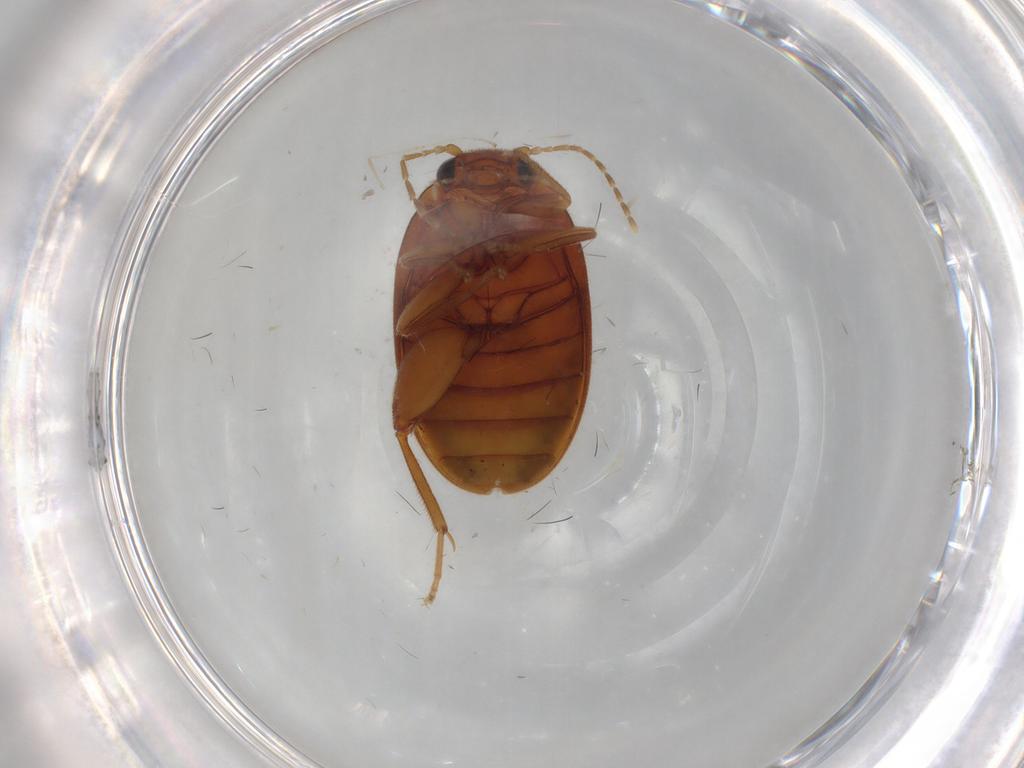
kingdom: Animalia
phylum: Arthropoda
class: Insecta
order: Coleoptera
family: Scirtidae
